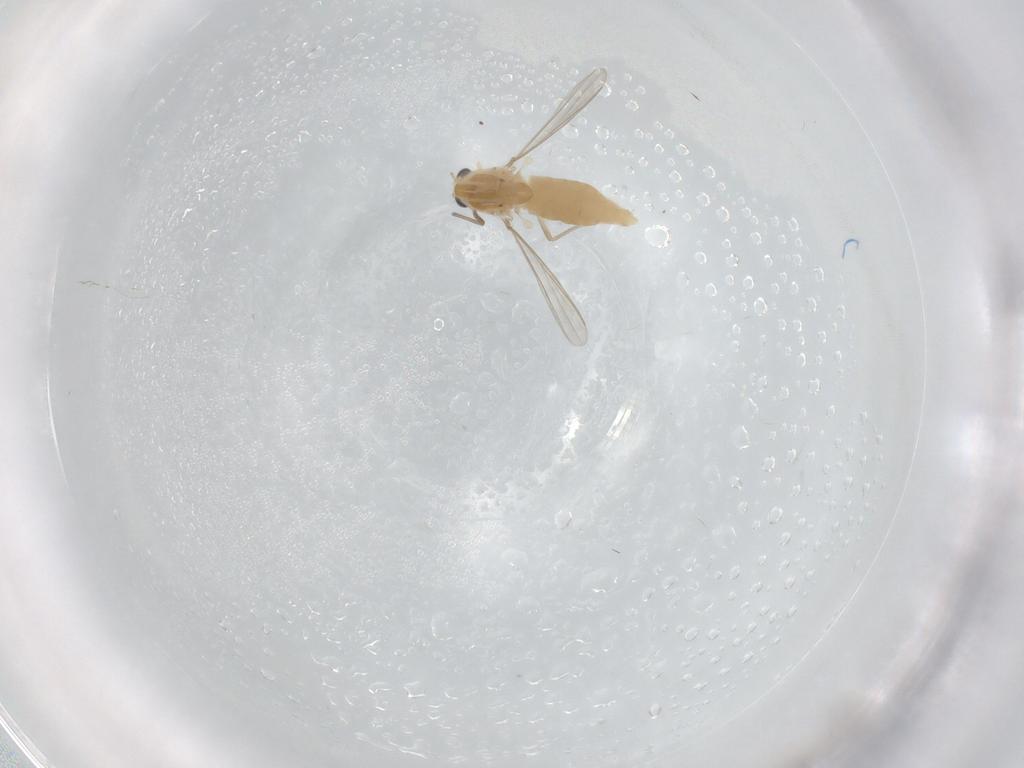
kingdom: Animalia
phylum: Arthropoda
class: Insecta
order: Diptera
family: Chironomidae
